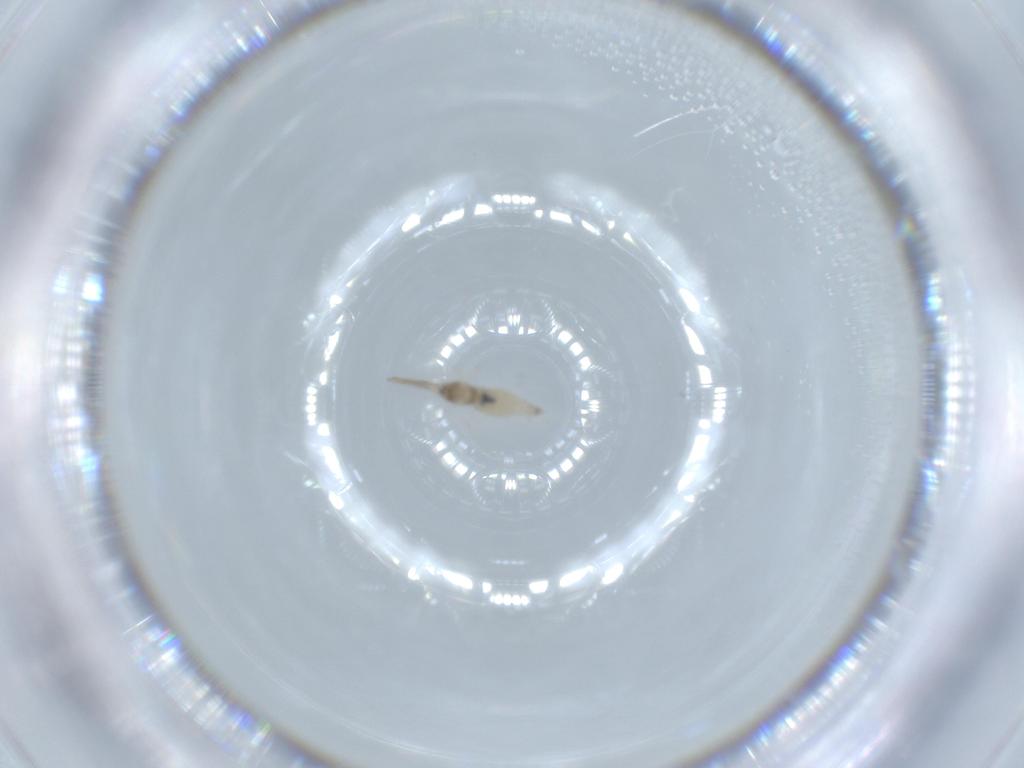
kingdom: Animalia
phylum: Arthropoda
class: Insecta
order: Diptera
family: Cecidomyiidae
